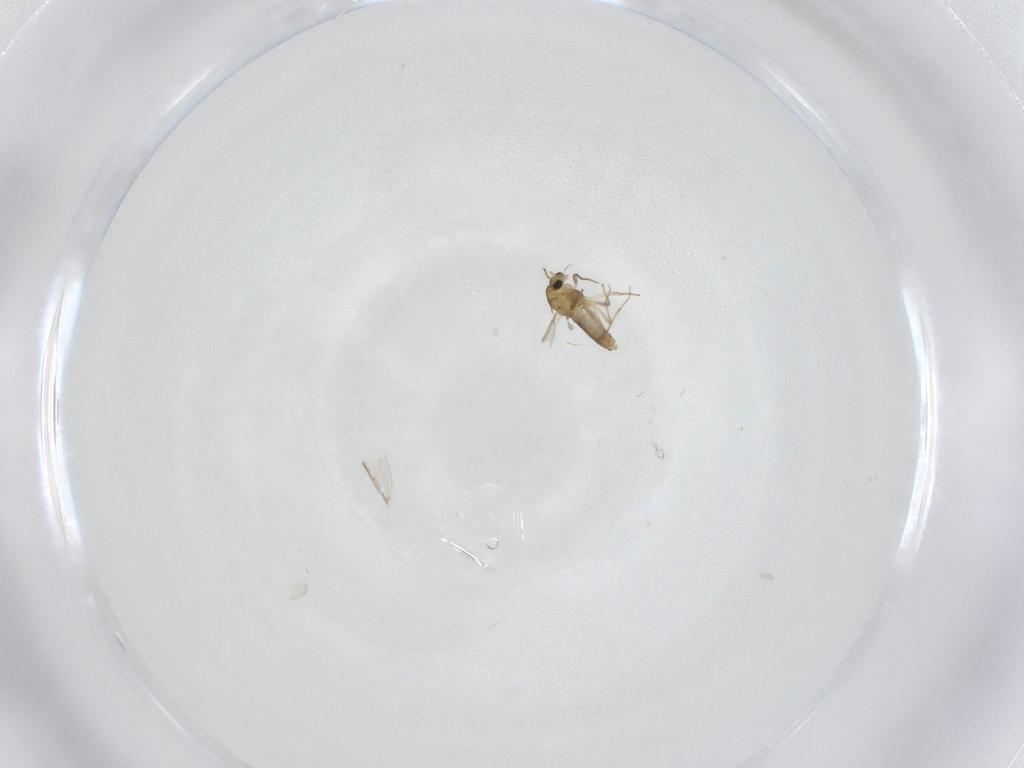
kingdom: Animalia
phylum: Arthropoda
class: Insecta
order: Diptera
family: Chironomidae
